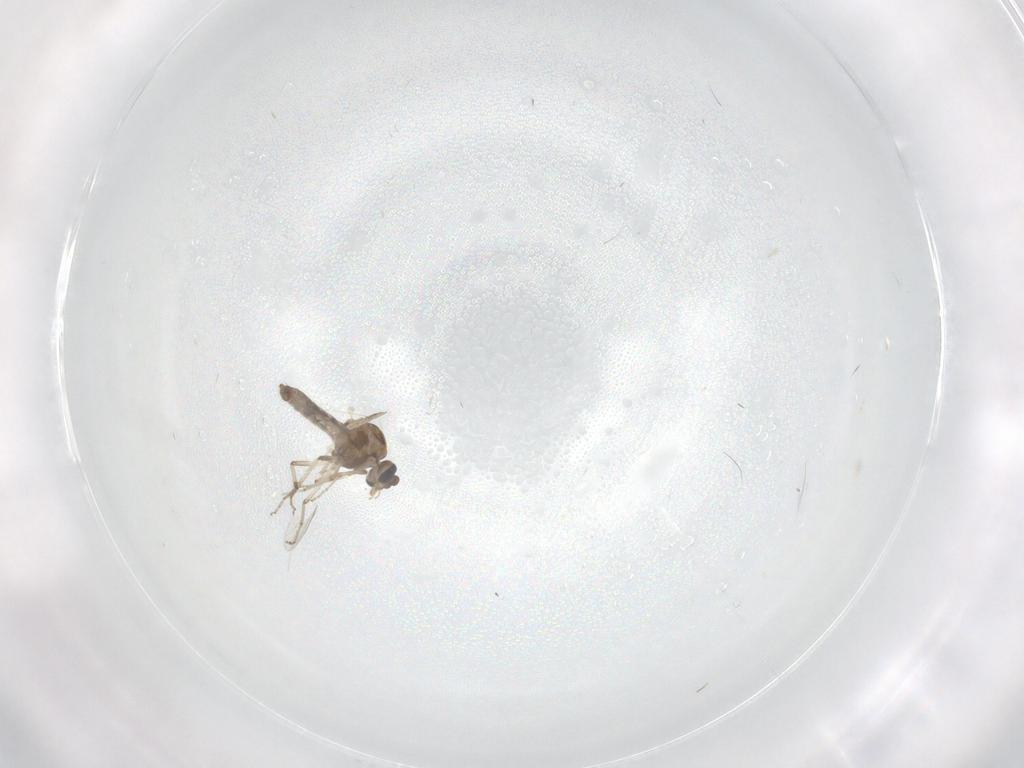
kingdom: Animalia
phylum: Arthropoda
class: Insecta
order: Diptera
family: Ceratopogonidae
